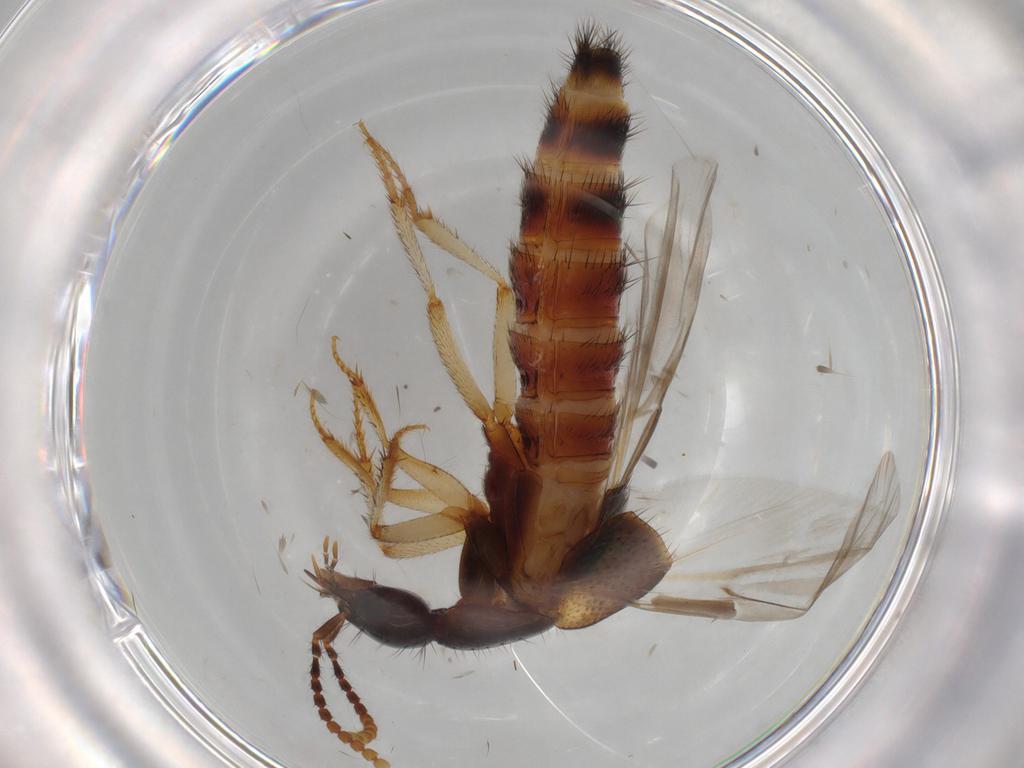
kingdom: Animalia
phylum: Arthropoda
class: Insecta
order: Coleoptera
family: Staphylinidae
